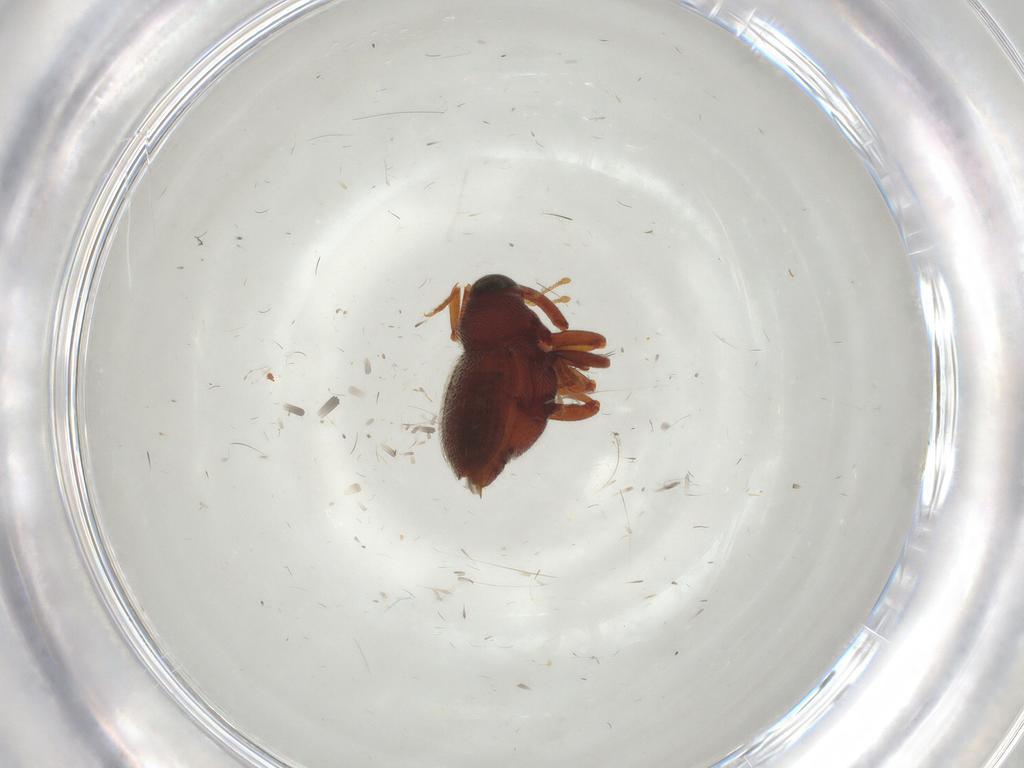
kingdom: Animalia
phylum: Arthropoda
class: Insecta
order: Coleoptera
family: Curculionidae
